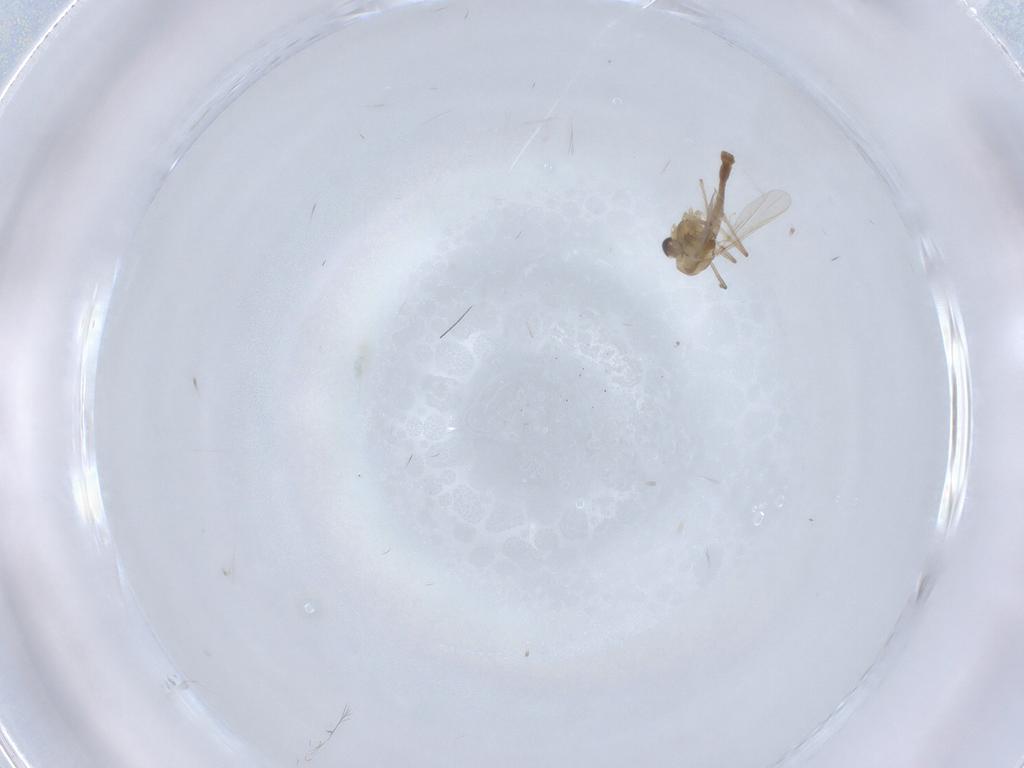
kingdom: Animalia
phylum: Arthropoda
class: Insecta
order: Diptera
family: Chironomidae
